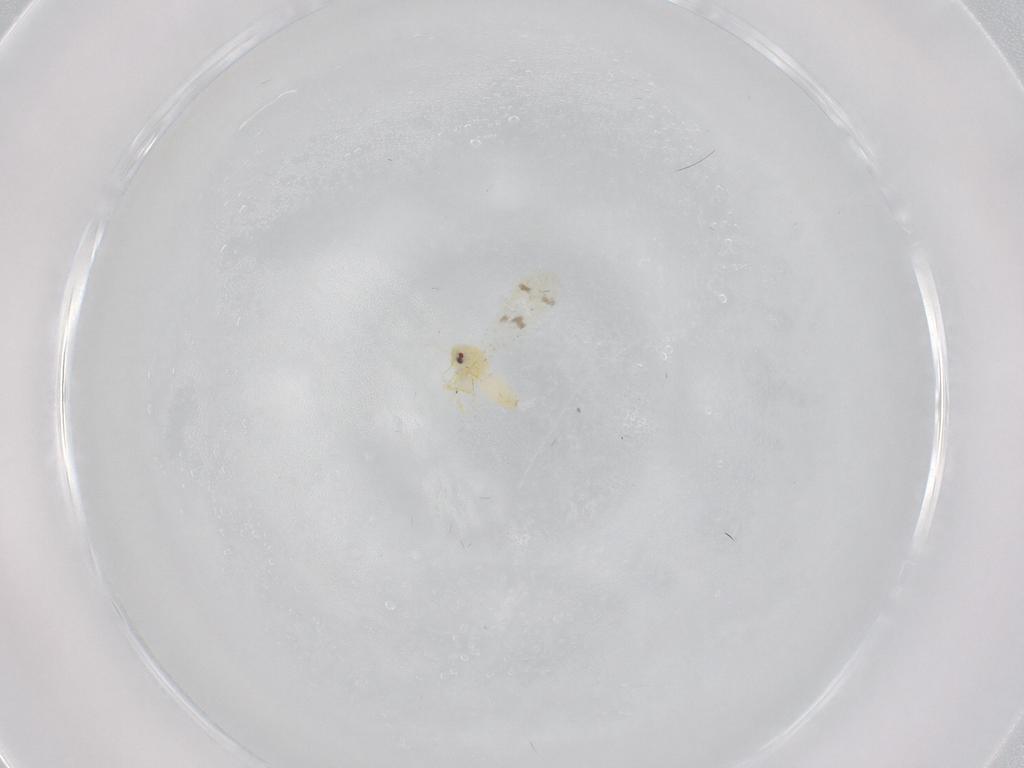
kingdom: Animalia
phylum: Arthropoda
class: Insecta
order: Hemiptera
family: Aleyrodidae
